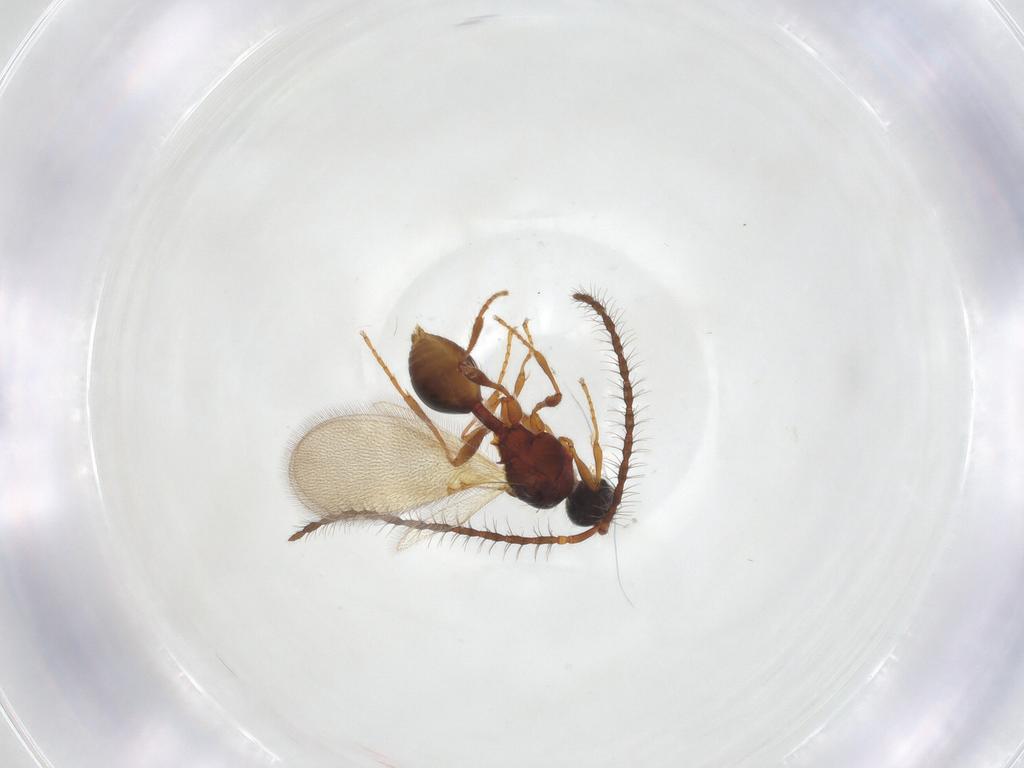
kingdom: Animalia
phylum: Arthropoda
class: Insecta
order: Hymenoptera
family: Diapriidae
